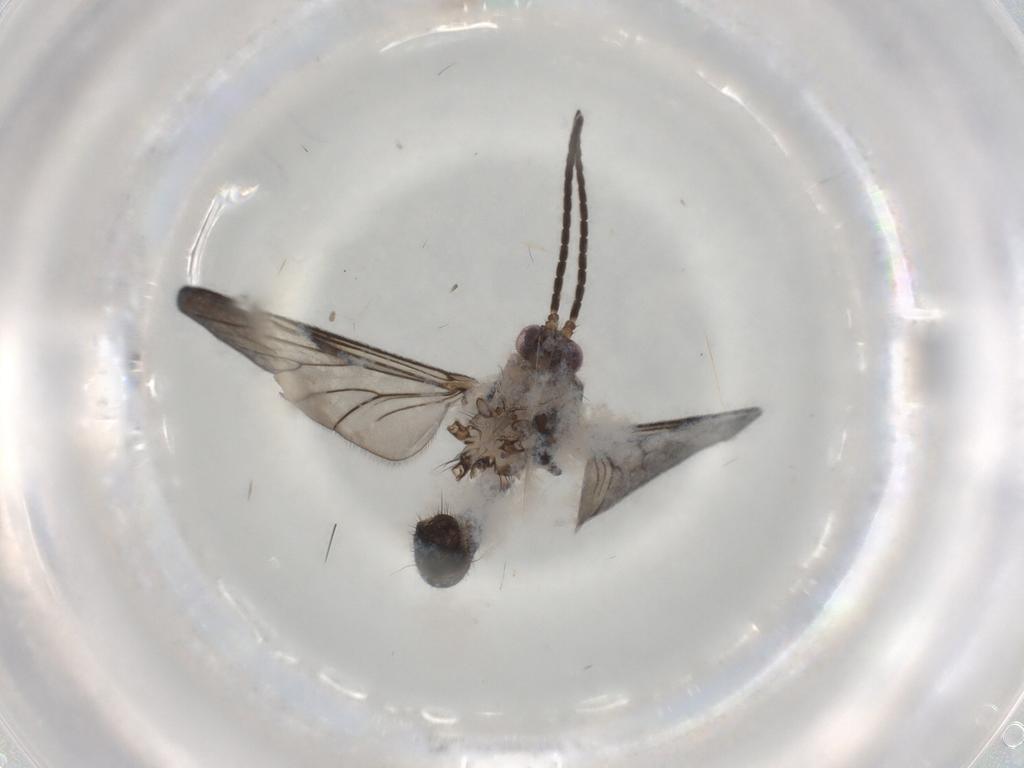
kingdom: Animalia
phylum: Arthropoda
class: Insecta
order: Diptera
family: Mycetophilidae
